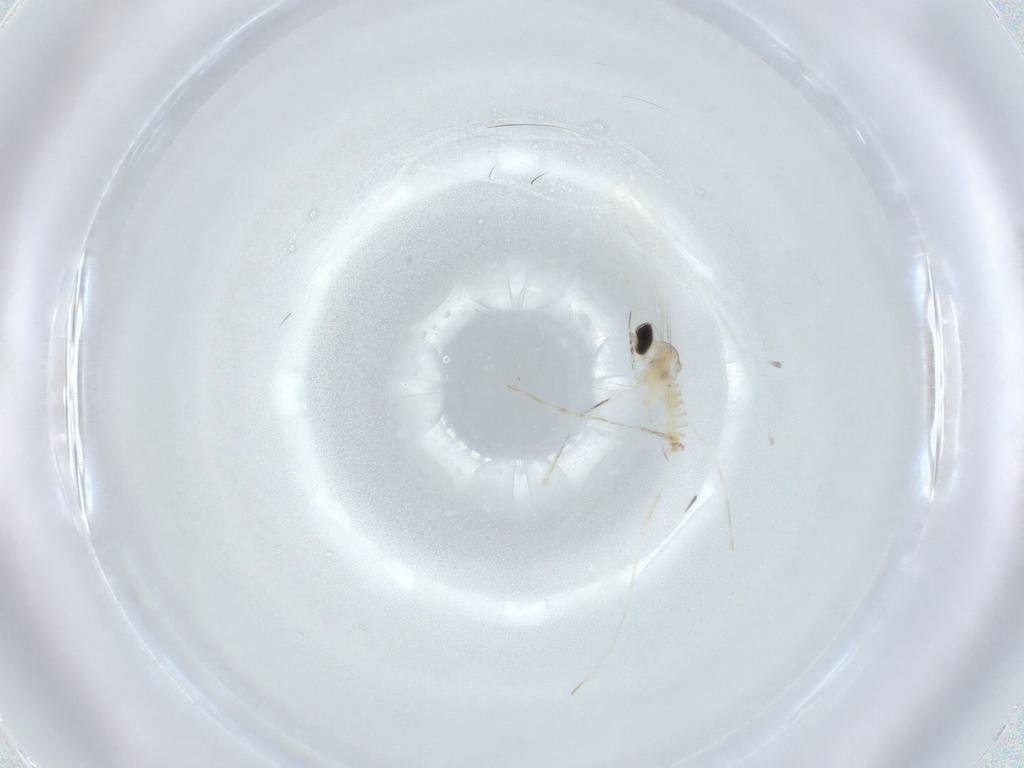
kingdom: Animalia
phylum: Arthropoda
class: Insecta
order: Diptera
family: Cecidomyiidae
